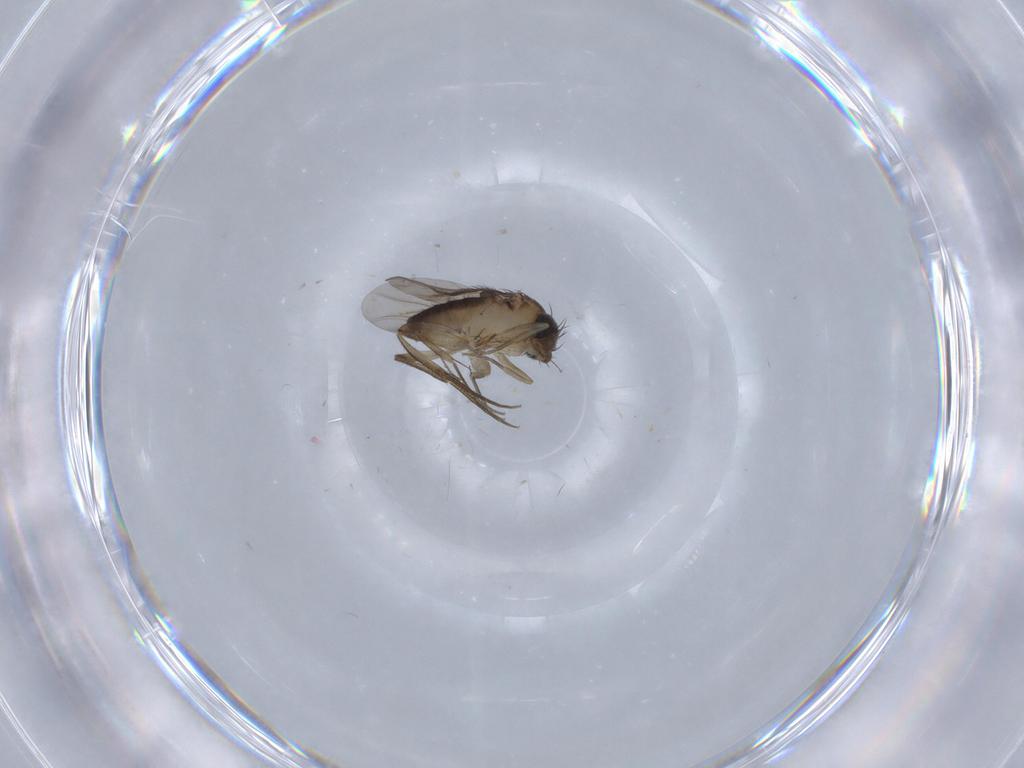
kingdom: Animalia
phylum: Arthropoda
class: Insecta
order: Diptera
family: Phoridae
